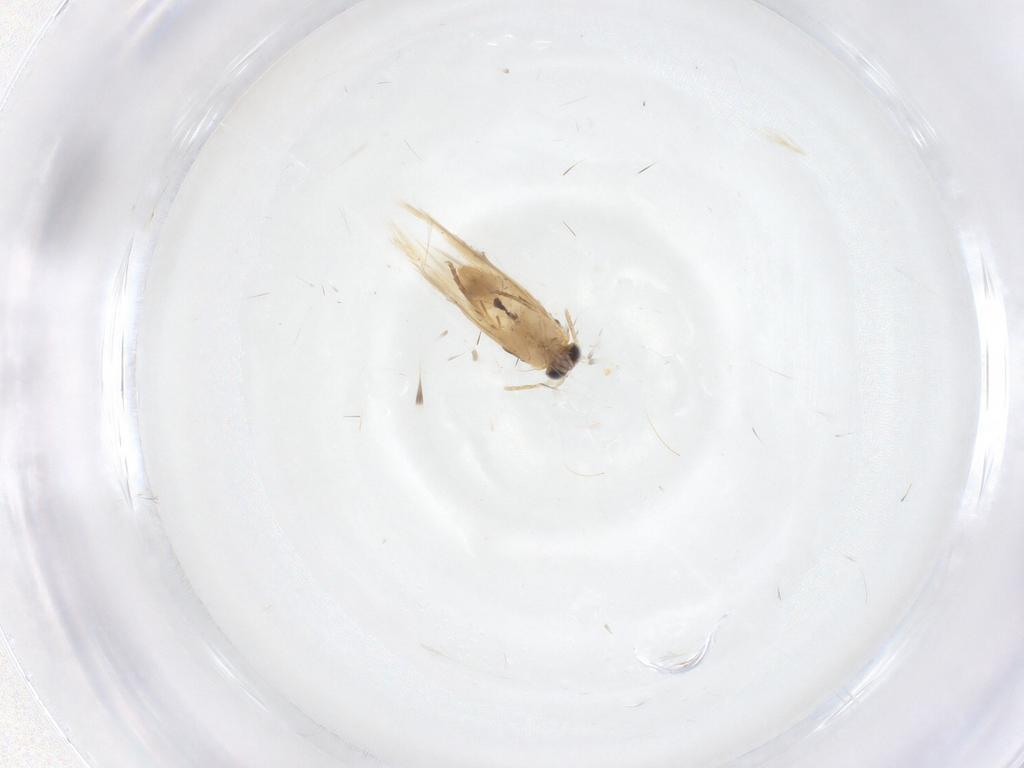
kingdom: Animalia
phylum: Arthropoda
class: Insecta
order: Lepidoptera
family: Nepticulidae
